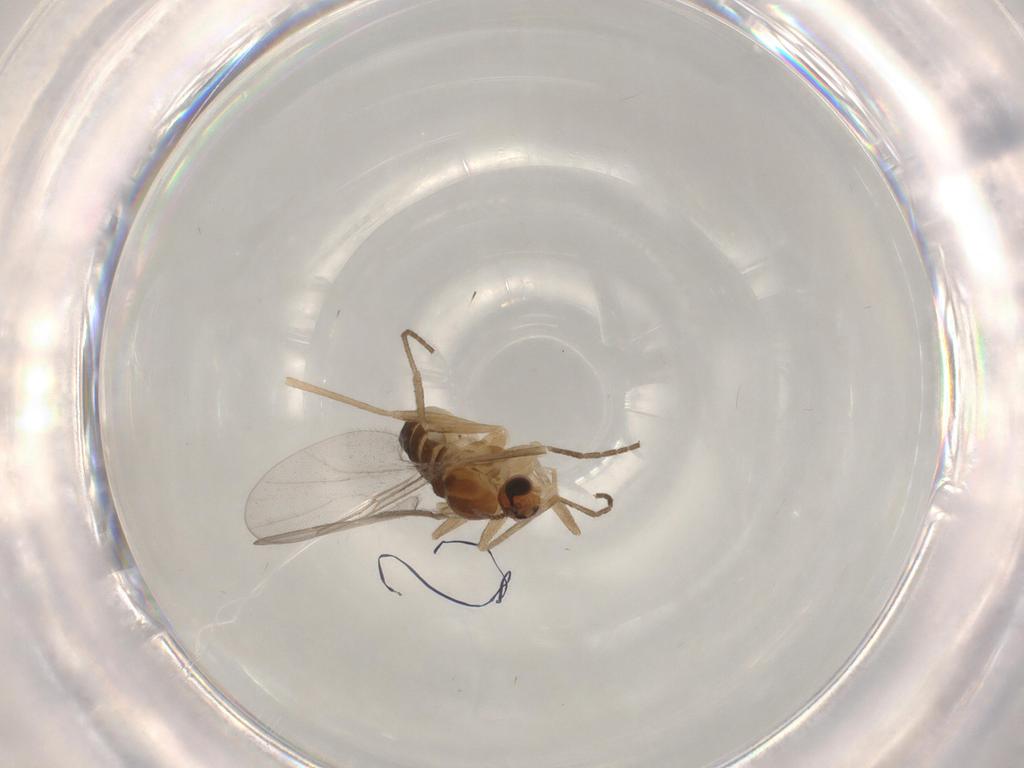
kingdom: Animalia
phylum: Arthropoda
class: Insecta
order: Diptera
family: Cecidomyiidae
